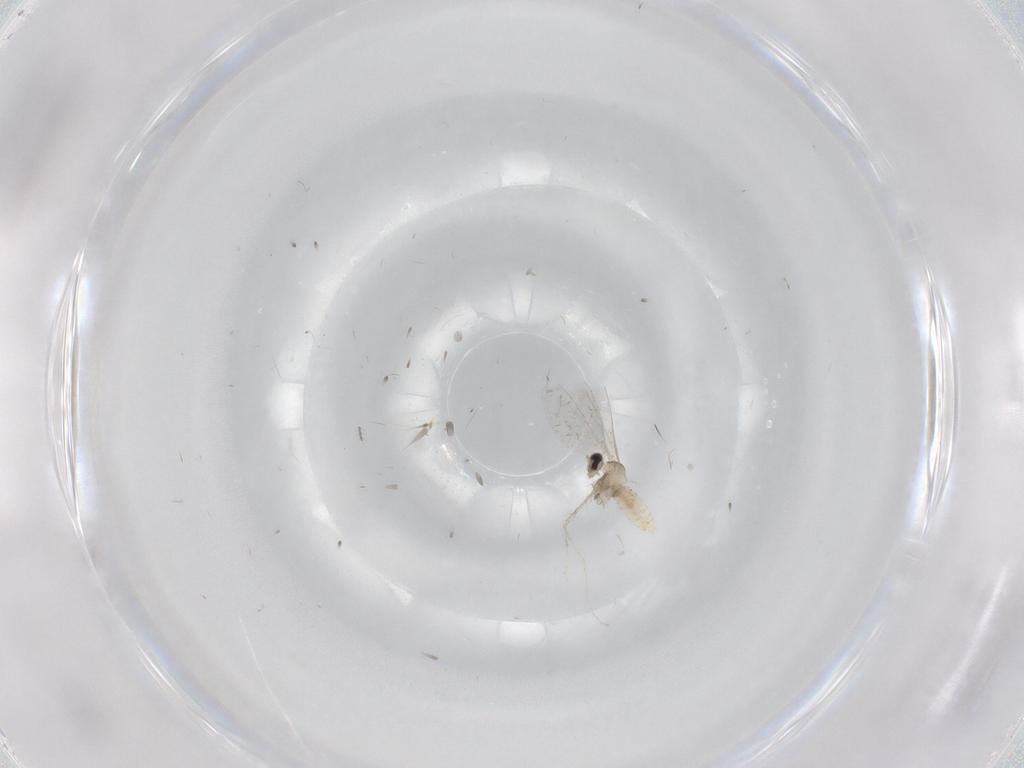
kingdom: Animalia
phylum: Arthropoda
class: Insecta
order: Diptera
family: Cecidomyiidae
